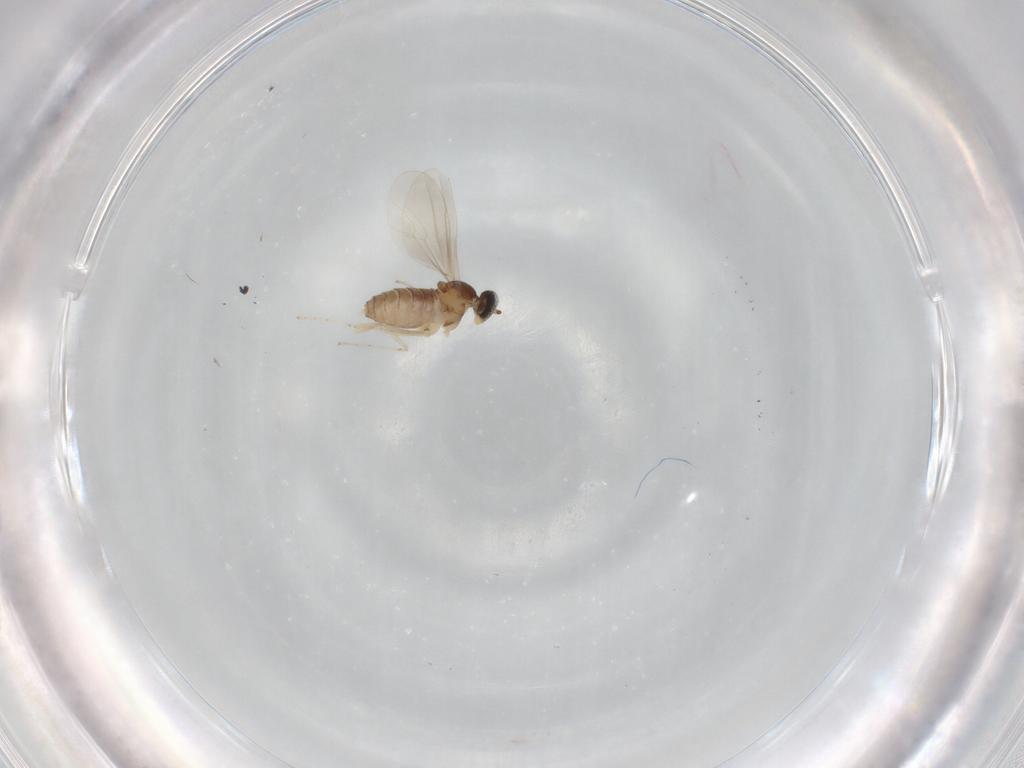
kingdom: Animalia
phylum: Arthropoda
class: Insecta
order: Diptera
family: Cecidomyiidae
